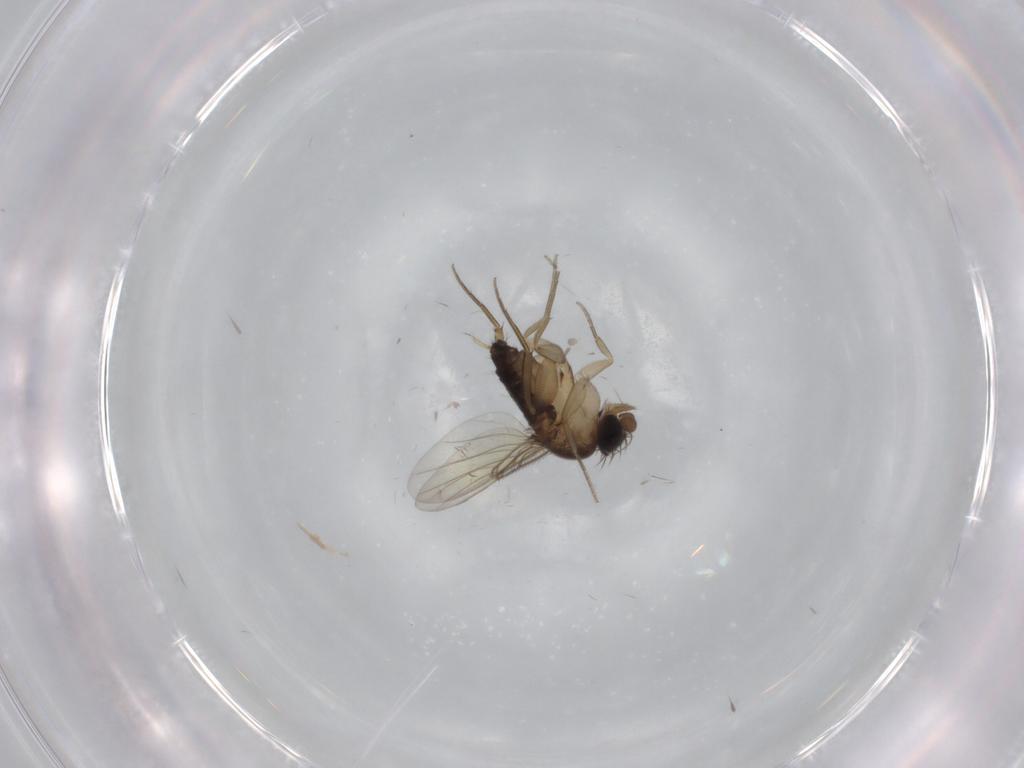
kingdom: Animalia
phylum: Arthropoda
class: Insecta
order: Diptera
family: Phoridae
